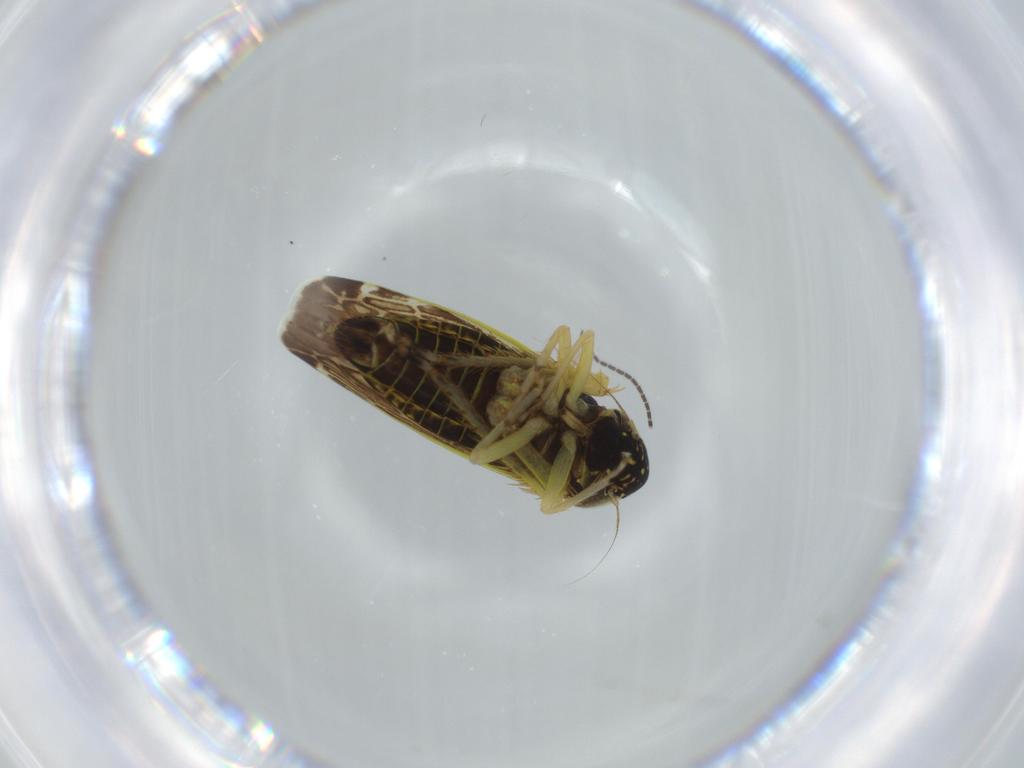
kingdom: Animalia
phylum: Arthropoda
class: Insecta
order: Hemiptera
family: Cicadellidae
